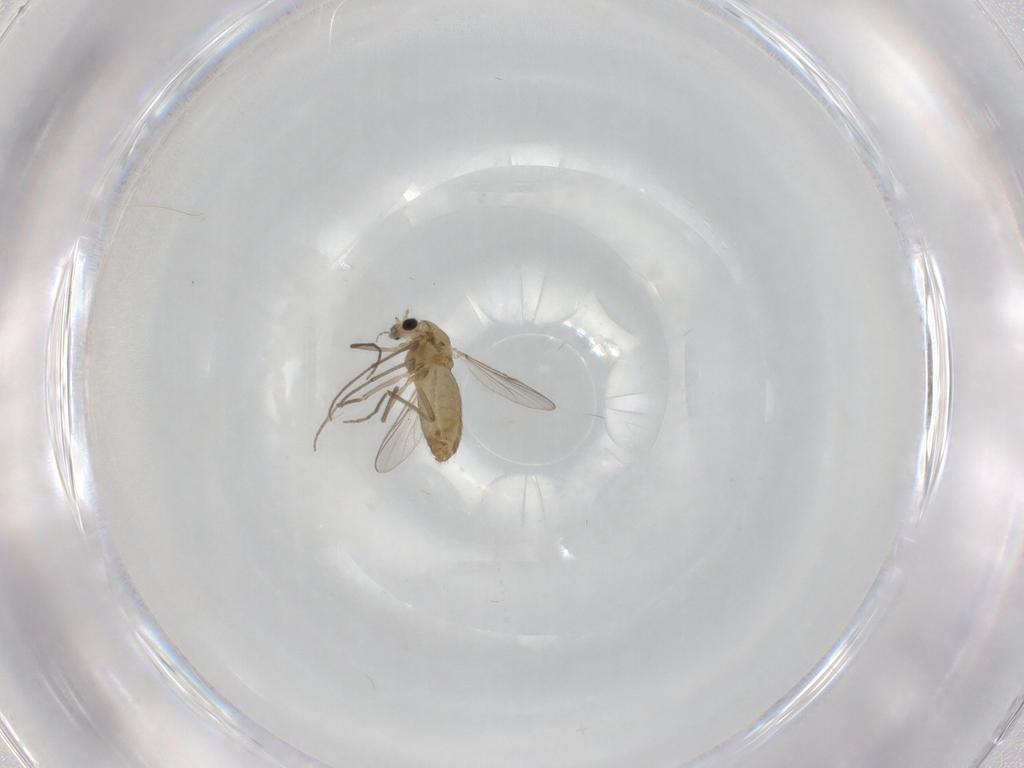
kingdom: Animalia
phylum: Arthropoda
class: Insecta
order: Diptera
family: Chironomidae
